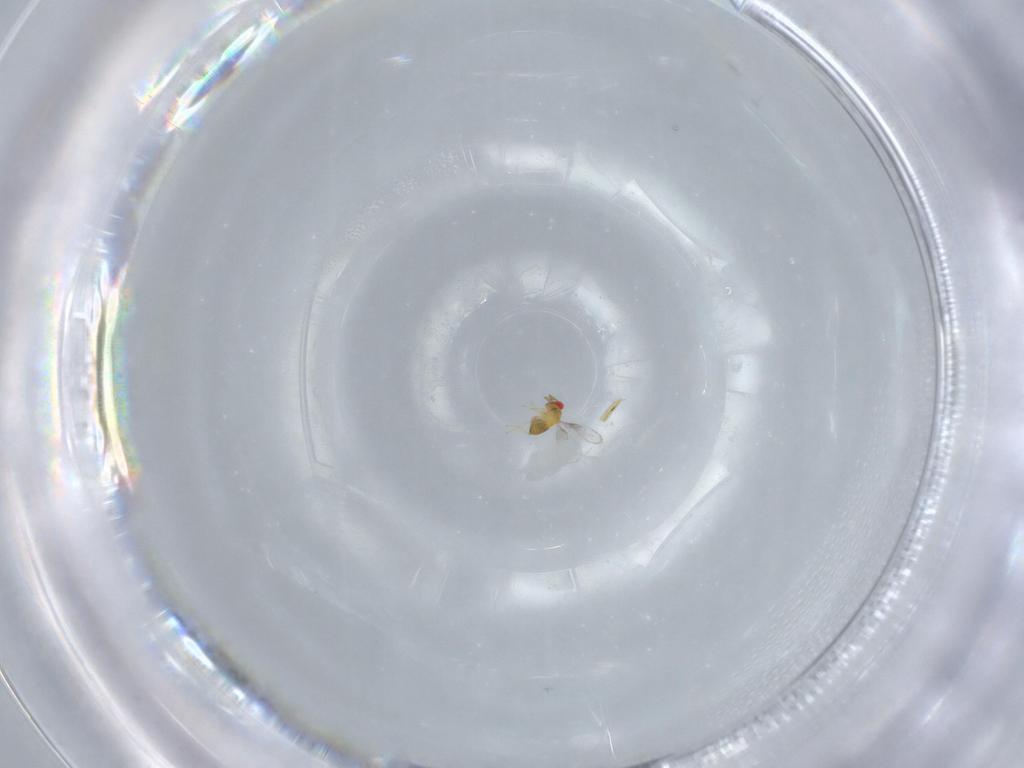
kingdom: Animalia
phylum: Arthropoda
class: Insecta
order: Hymenoptera
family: Trichogrammatidae
